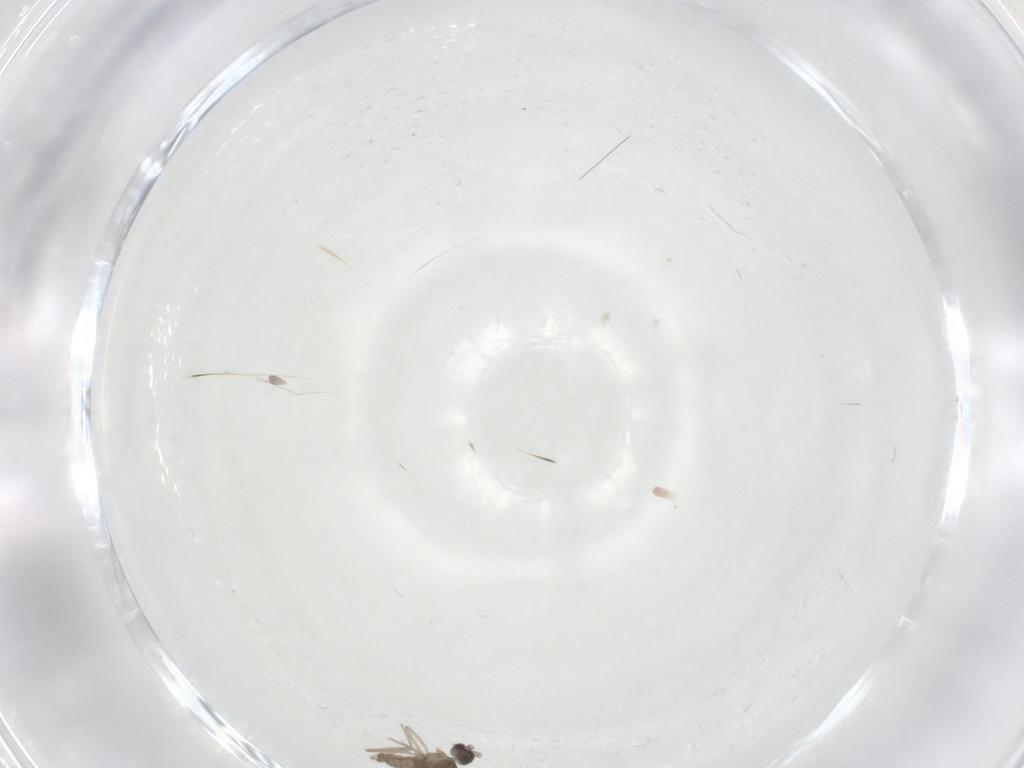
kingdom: Animalia
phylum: Arthropoda
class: Insecta
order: Diptera
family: Cecidomyiidae
